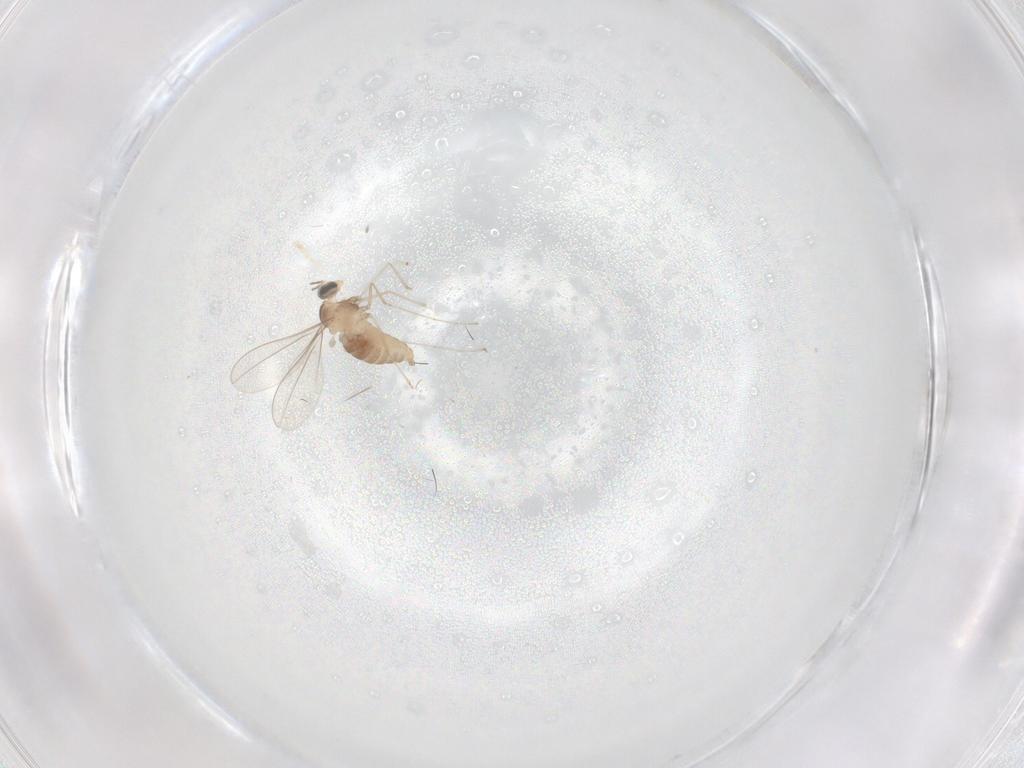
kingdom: Animalia
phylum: Arthropoda
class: Insecta
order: Diptera
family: Cecidomyiidae
